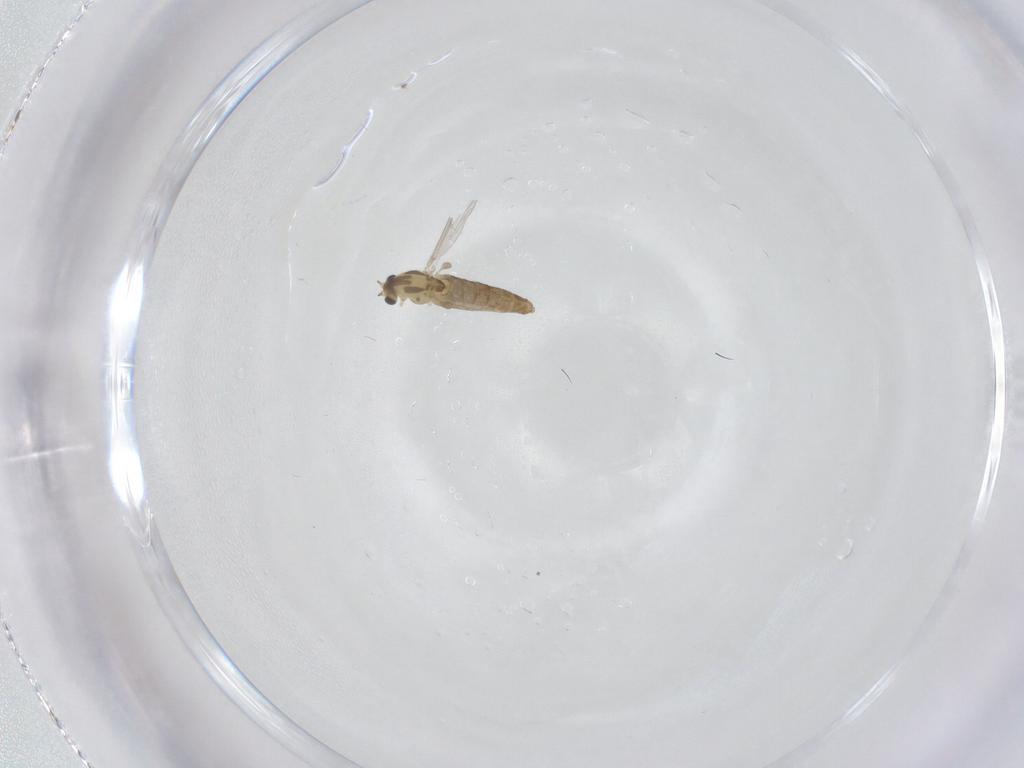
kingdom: Animalia
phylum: Arthropoda
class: Insecta
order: Diptera
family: Chironomidae
